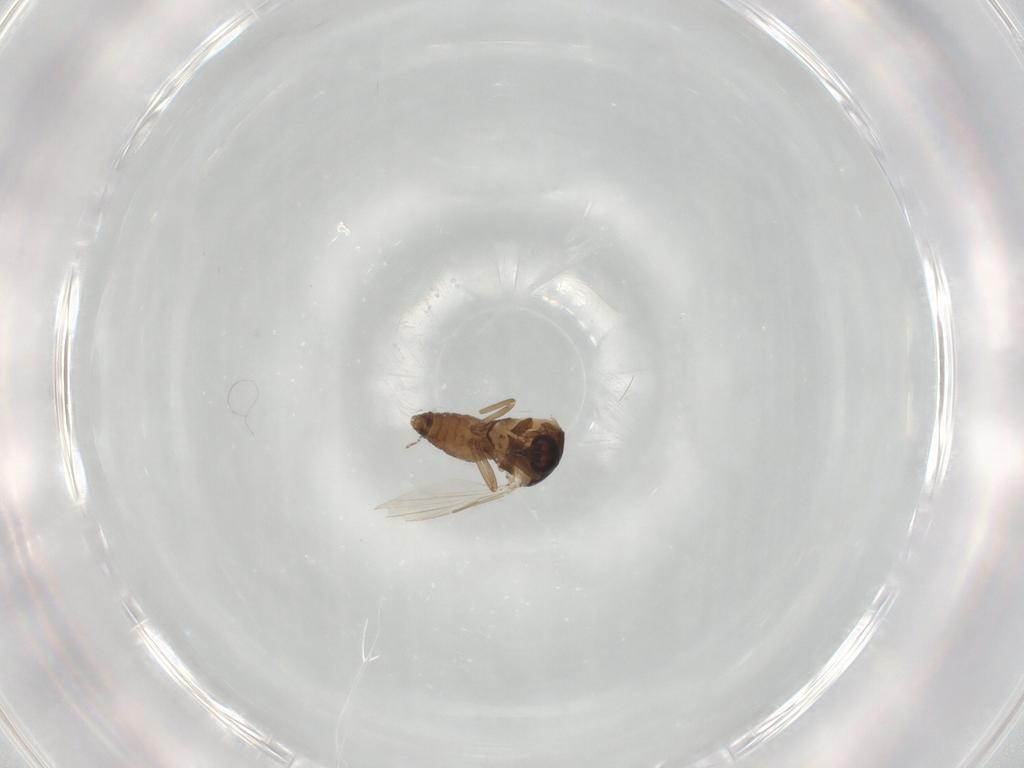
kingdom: Animalia
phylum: Arthropoda
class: Insecta
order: Diptera
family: Ceratopogonidae
